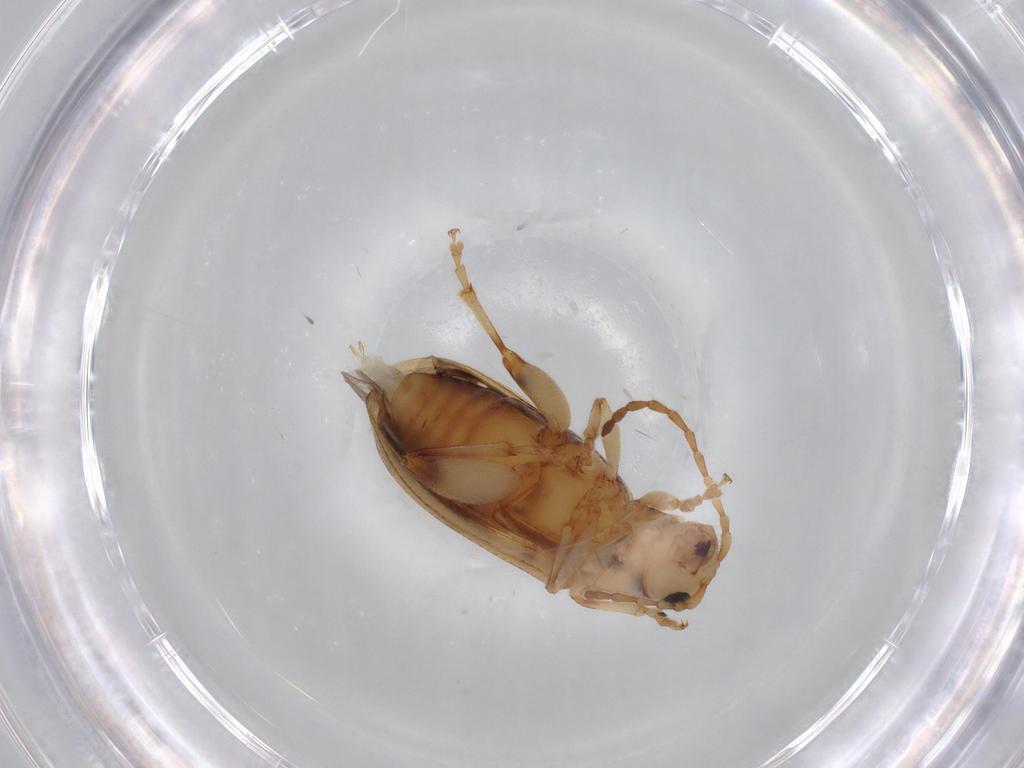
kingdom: Animalia
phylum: Arthropoda
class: Insecta
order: Coleoptera
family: Chrysomelidae
